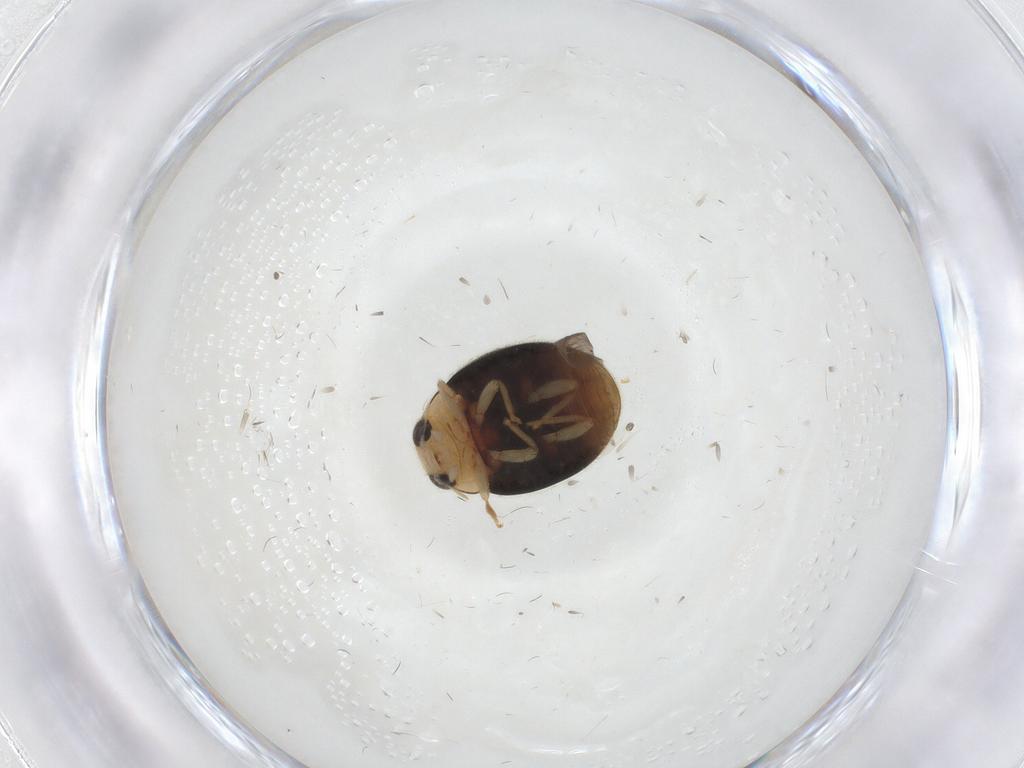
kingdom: Animalia
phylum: Arthropoda
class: Insecta
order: Coleoptera
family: Coccinellidae
